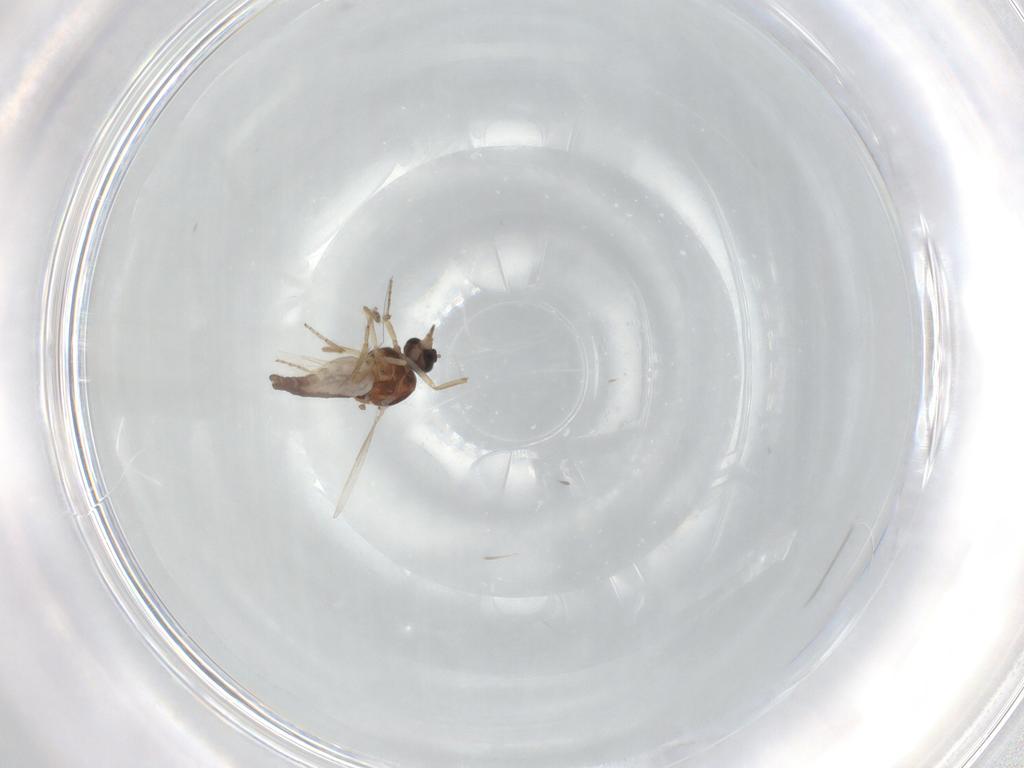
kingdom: Animalia
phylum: Arthropoda
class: Insecta
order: Diptera
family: Ceratopogonidae
